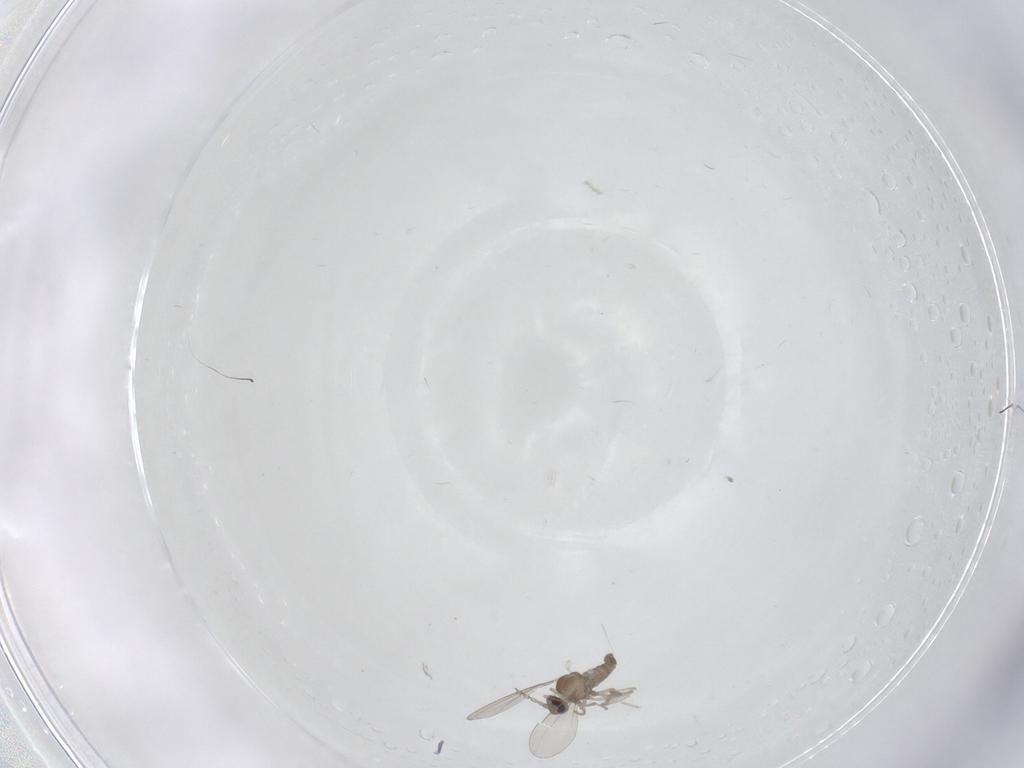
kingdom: Animalia
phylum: Arthropoda
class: Insecta
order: Diptera
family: Cecidomyiidae
